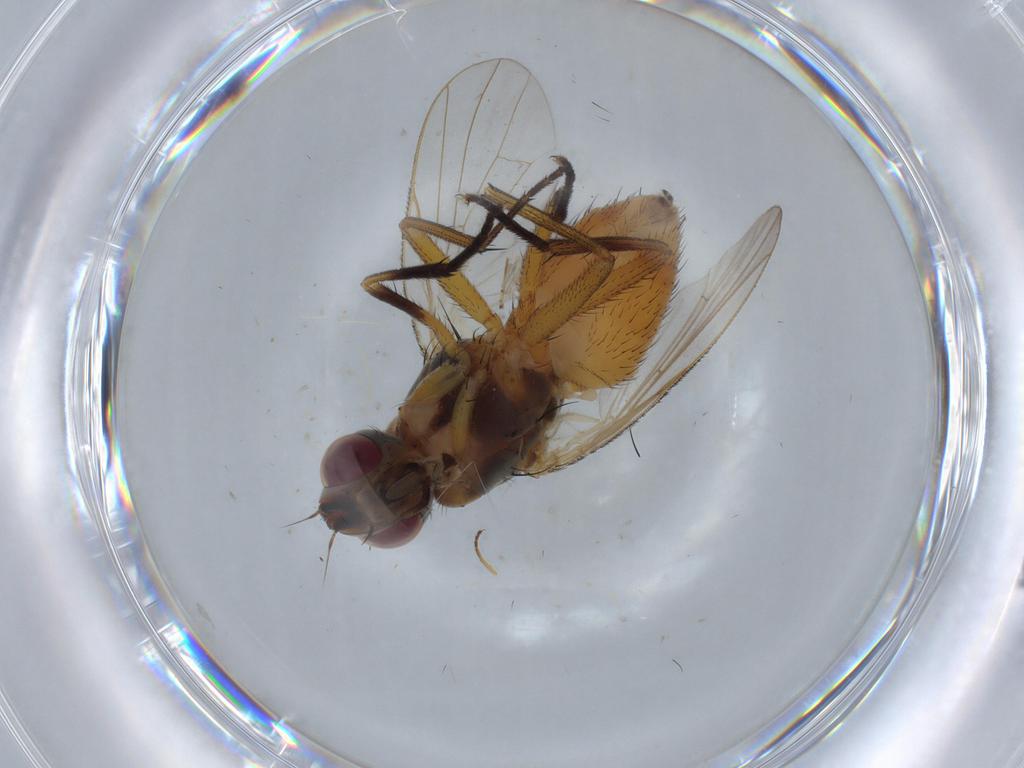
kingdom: Animalia
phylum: Arthropoda
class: Insecta
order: Diptera
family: Muscidae
